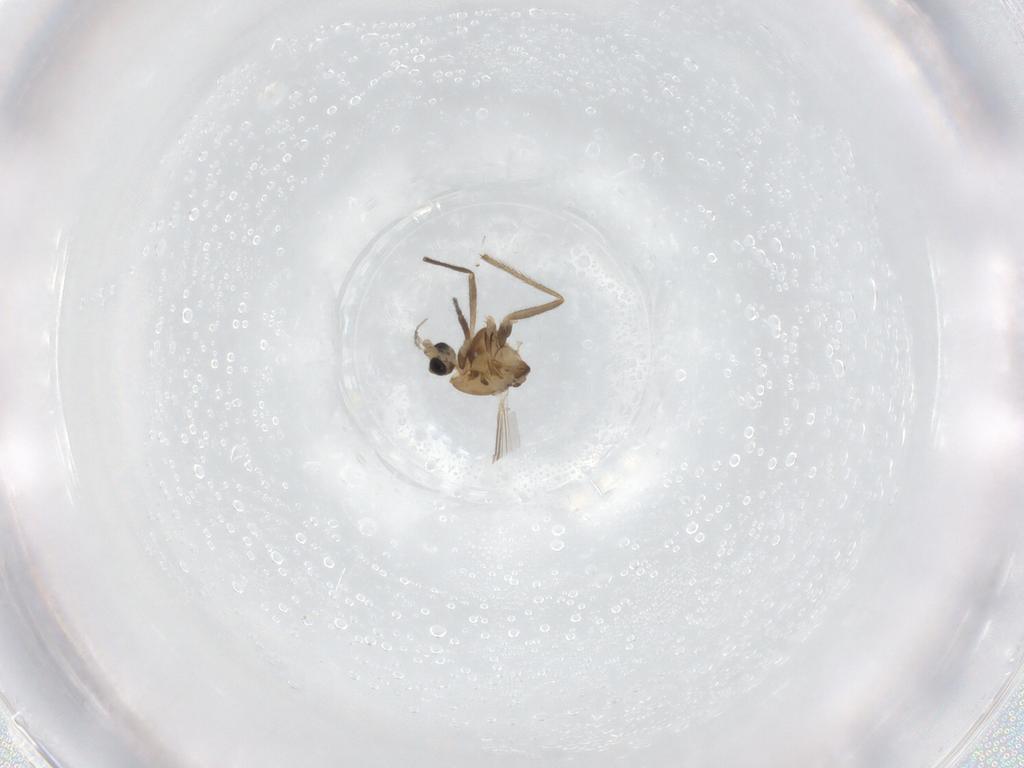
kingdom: Animalia
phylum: Arthropoda
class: Insecta
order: Diptera
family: Chironomidae
